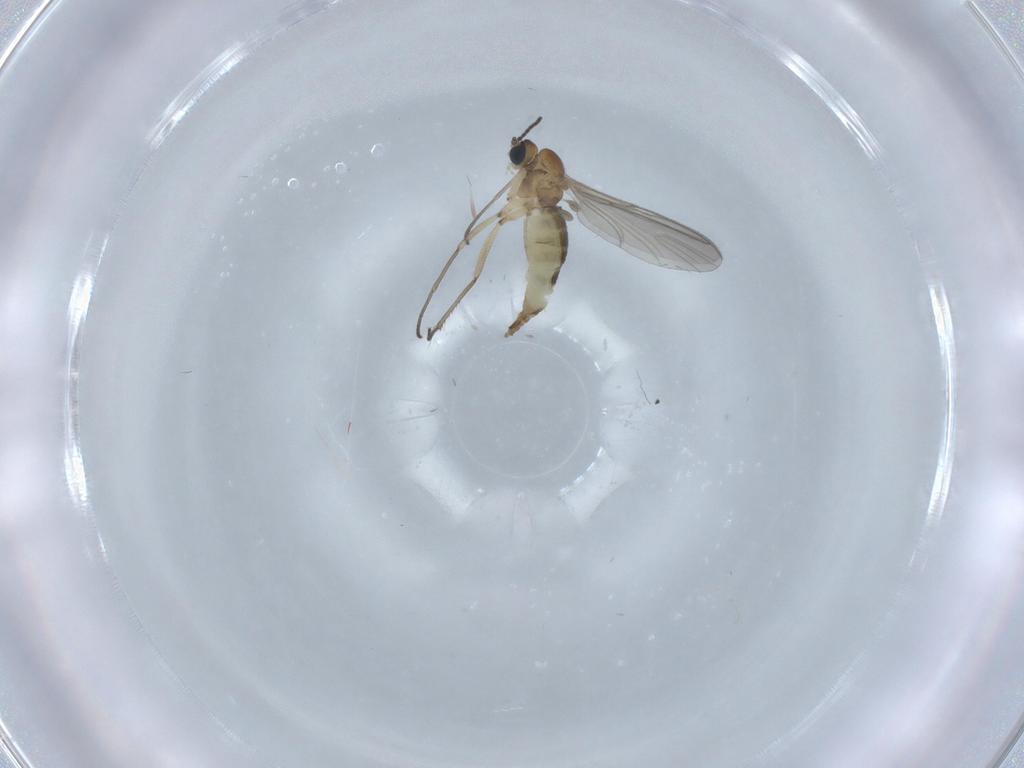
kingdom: Animalia
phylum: Arthropoda
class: Insecta
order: Diptera
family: Sciaridae
